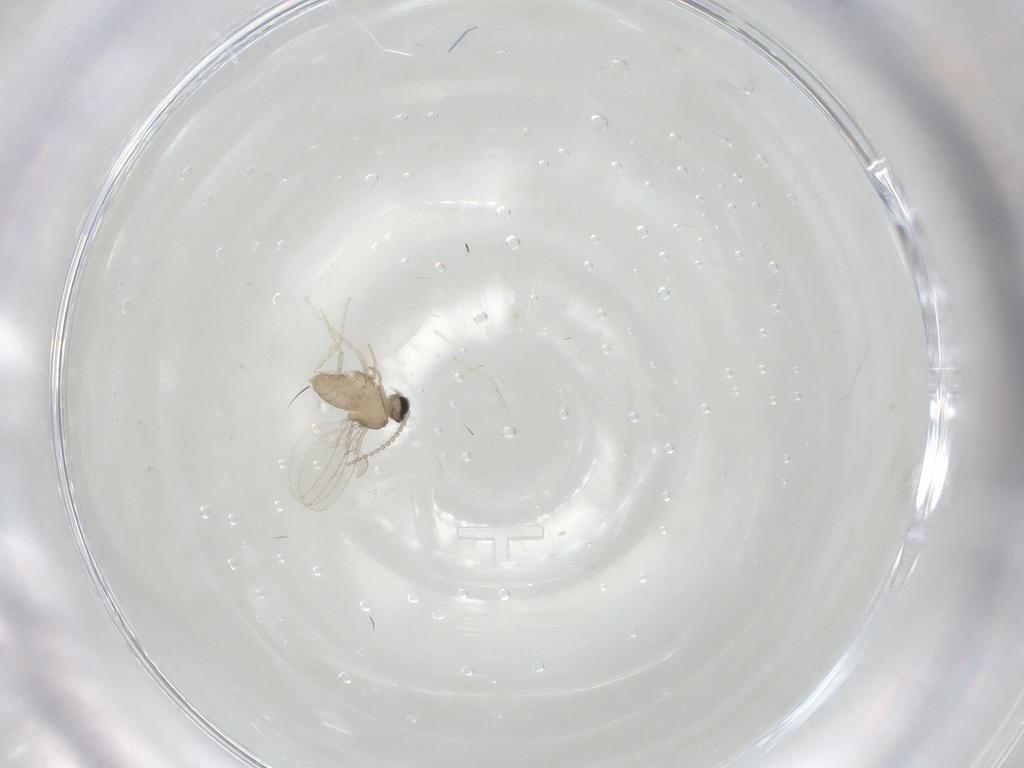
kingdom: Animalia
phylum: Arthropoda
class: Insecta
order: Diptera
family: Cecidomyiidae
